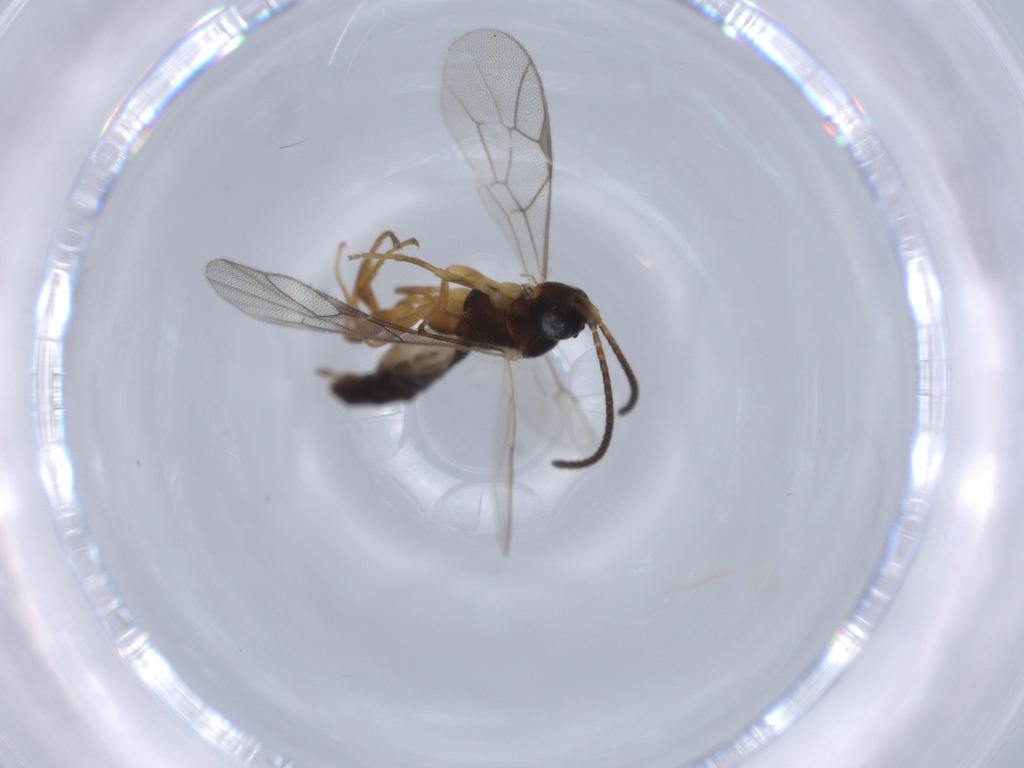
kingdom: Animalia
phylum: Arthropoda
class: Insecta
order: Hymenoptera
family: Ichneumonidae
